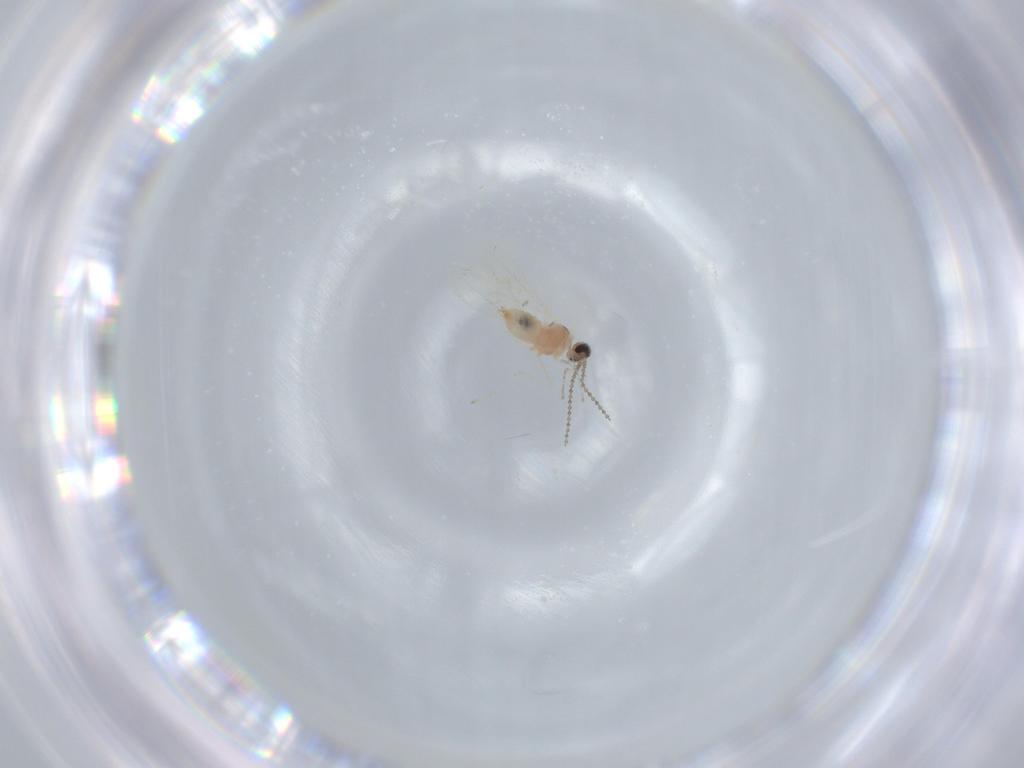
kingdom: Animalia
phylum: Arthropoda
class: Insecta
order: Diptera
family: Cecidomyiidae
